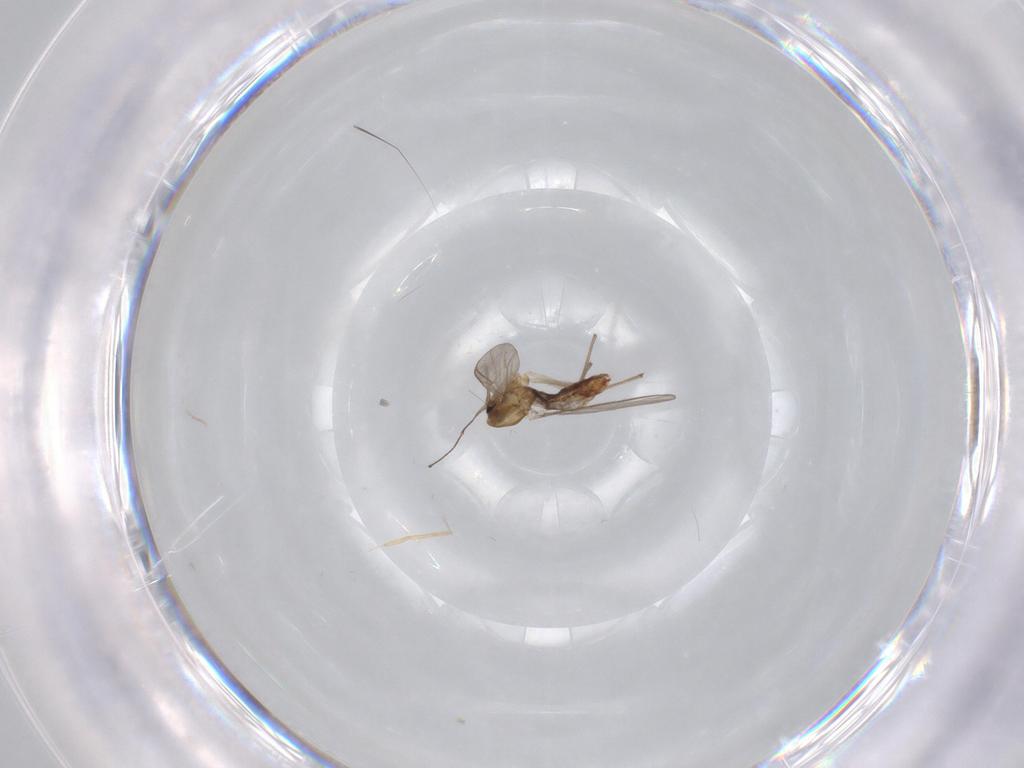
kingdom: Animalia
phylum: Arthropoda
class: Insecta
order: Diptera
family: Chironomidae
